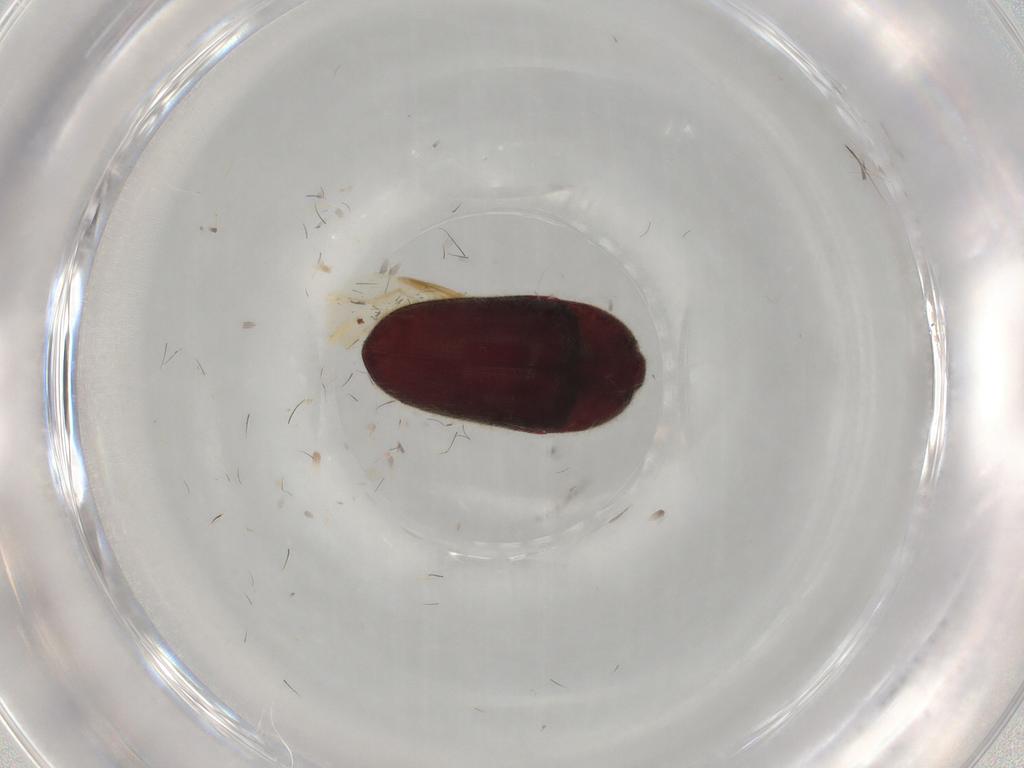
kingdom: Animalia
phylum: Arthropoda
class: Insecta
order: Coleoptera
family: Throscidae
